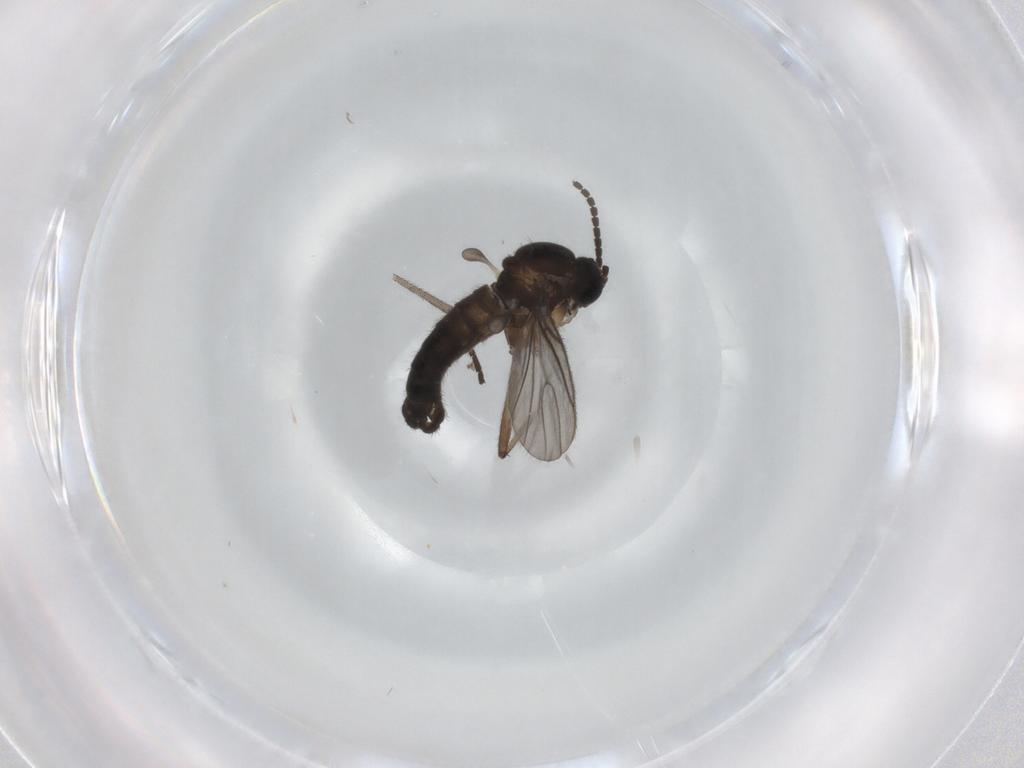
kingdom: Animalia
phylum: Arthropoda
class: Insecta
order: Diptera
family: Sciaridae
